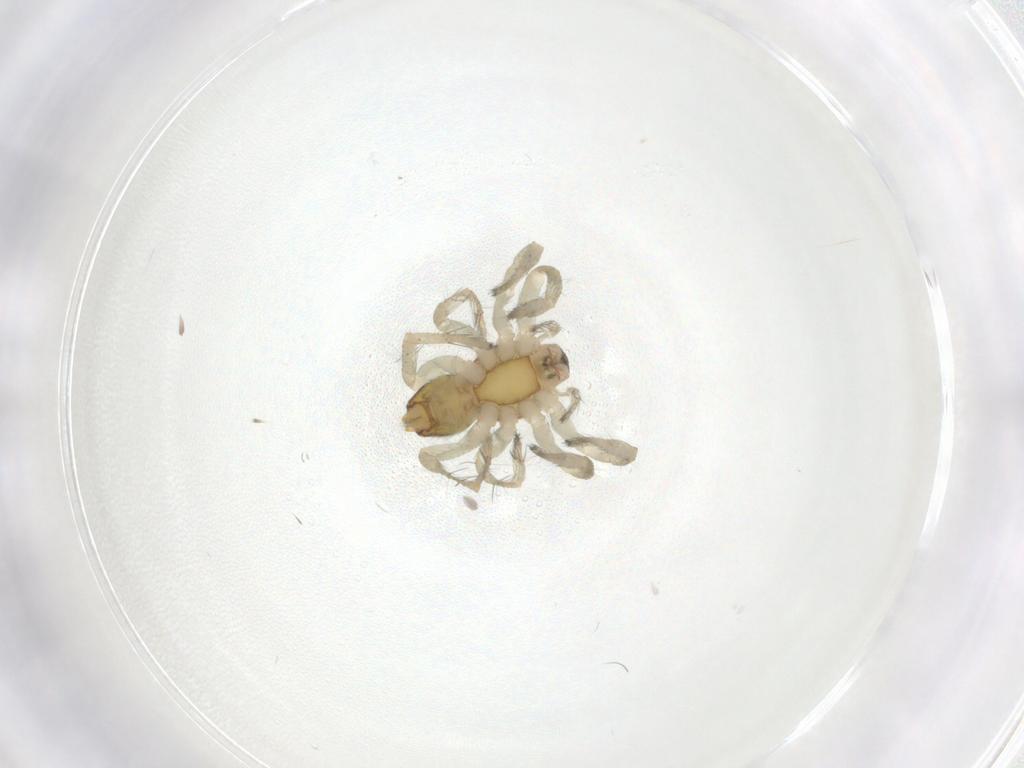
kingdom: Animalia
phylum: Arthropoda
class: Arachnida
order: Araneae
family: Anyphaenidae
